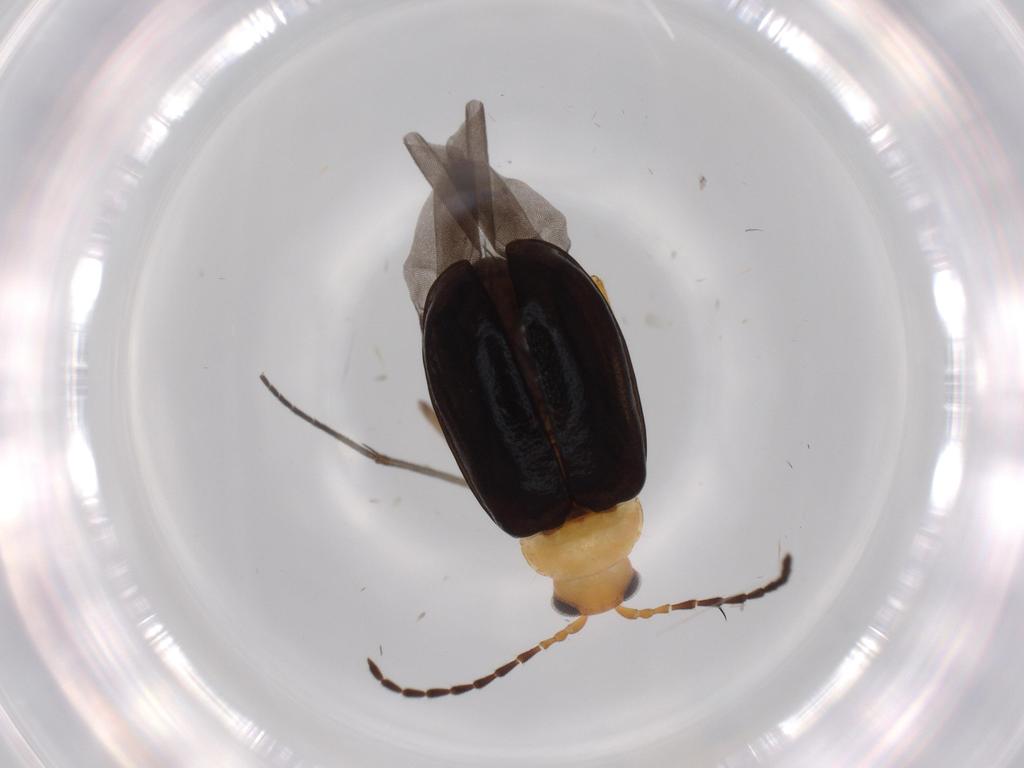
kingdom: Animalia
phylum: Arthropoda
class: Insecta
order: Coleoptera
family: Chrysomelidae
